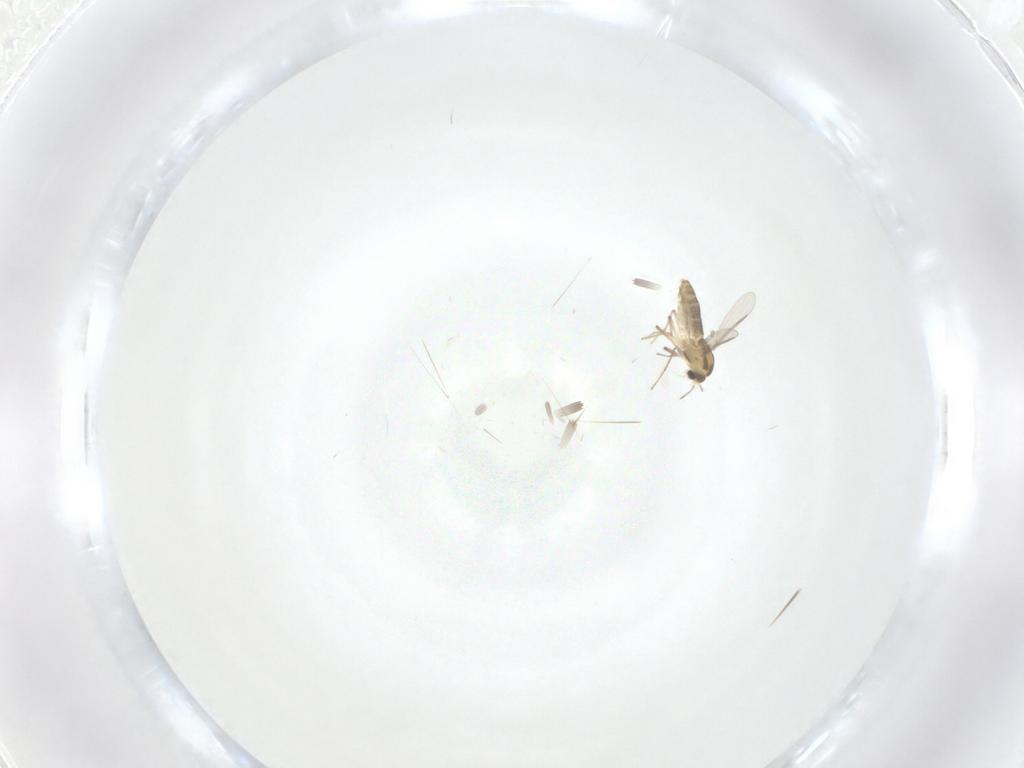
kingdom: Animalia
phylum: Arthropoda
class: Insecta
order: Diptera
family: Chironomidae
